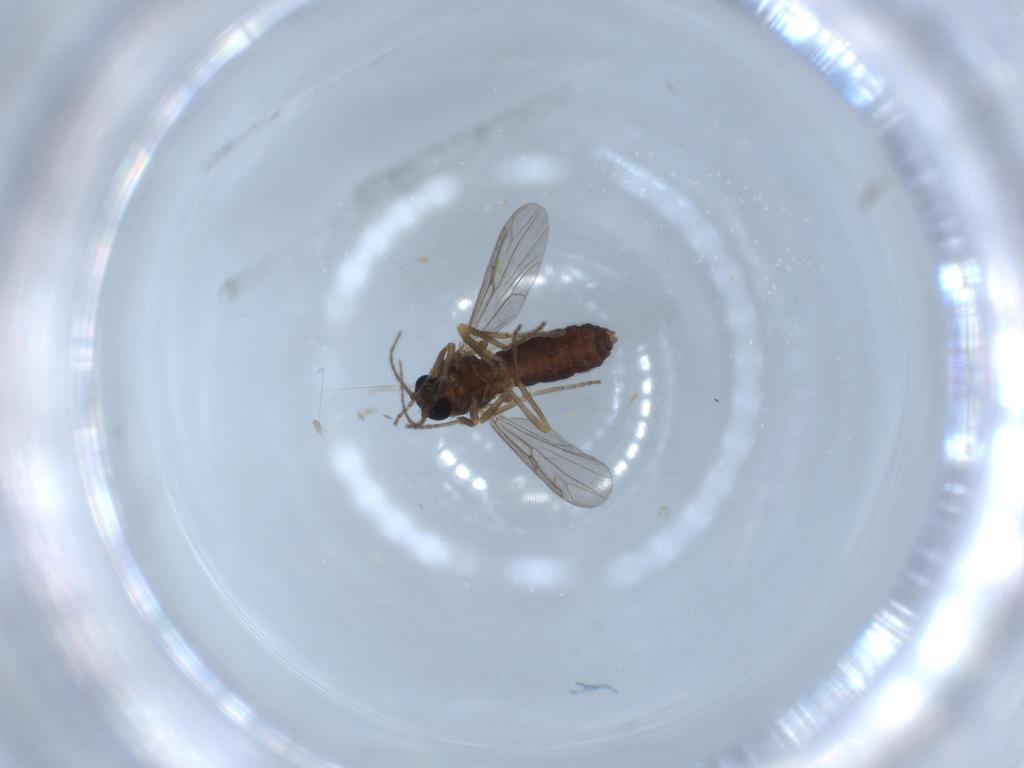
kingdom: Animalia
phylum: Arthropoda
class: Insecta
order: Diptera
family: Ceratopogonidae
